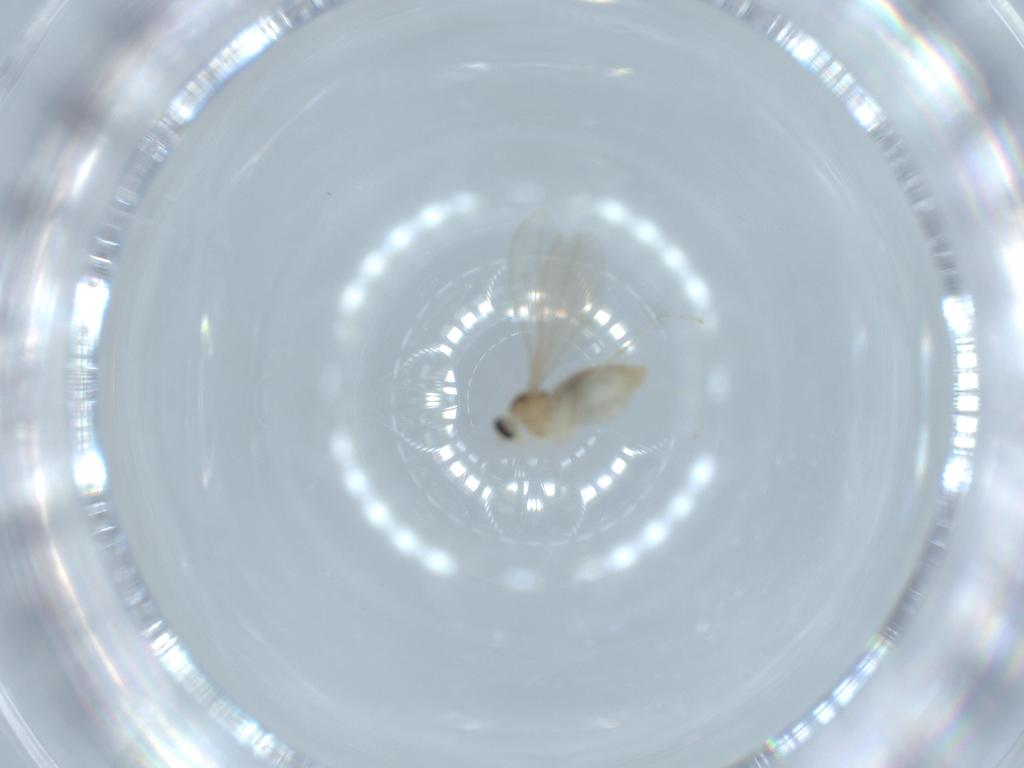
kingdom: Animalia
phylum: Arthropoda
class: Insecta
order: Diptera
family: Cecidomyiidae
